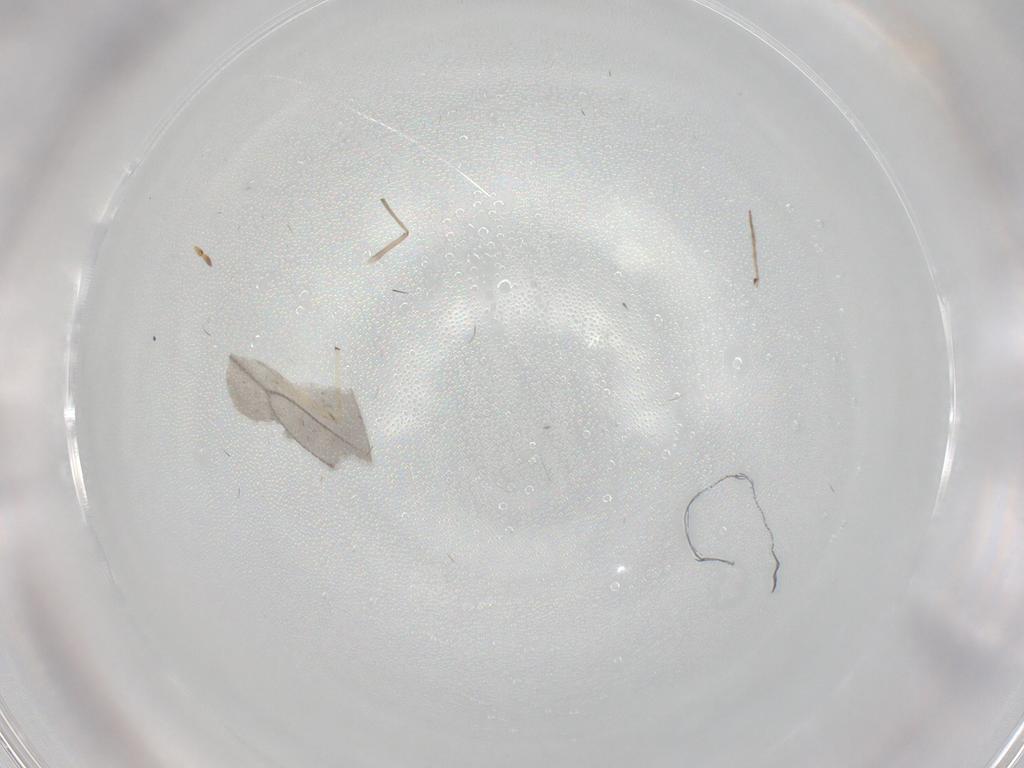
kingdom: Animalia
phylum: Arthropoda
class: Insecta
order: Diptera
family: Chironomidae
